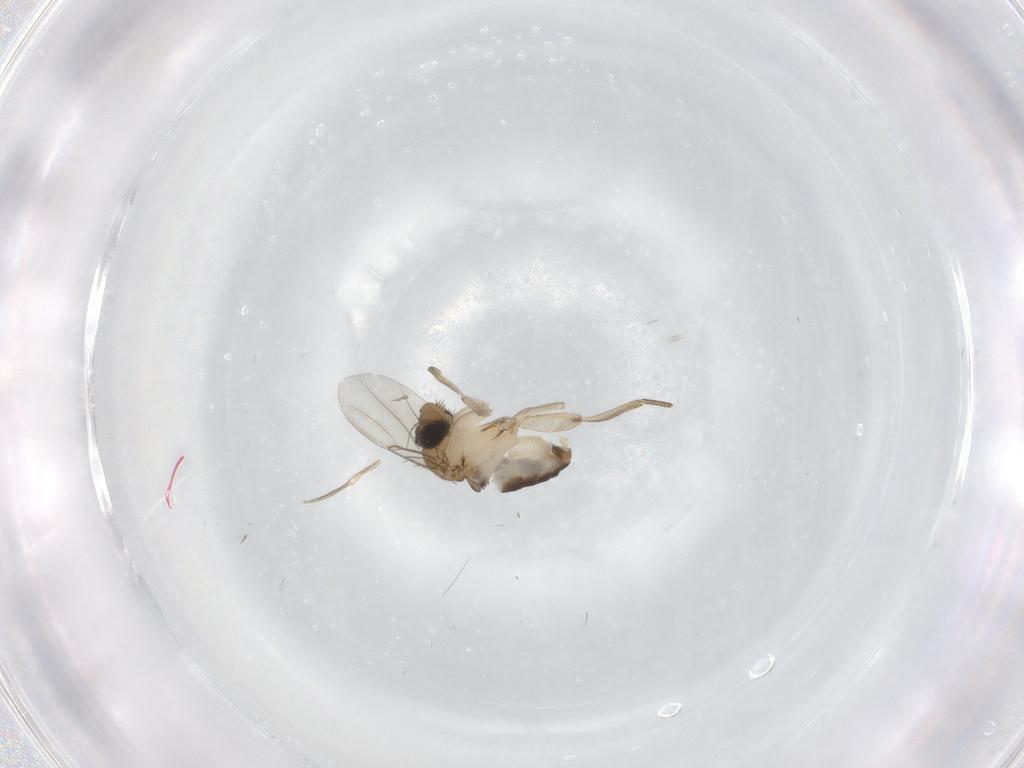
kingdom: Animalia
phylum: Arthropoda
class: Insecta
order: Diptera
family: Phoridae
